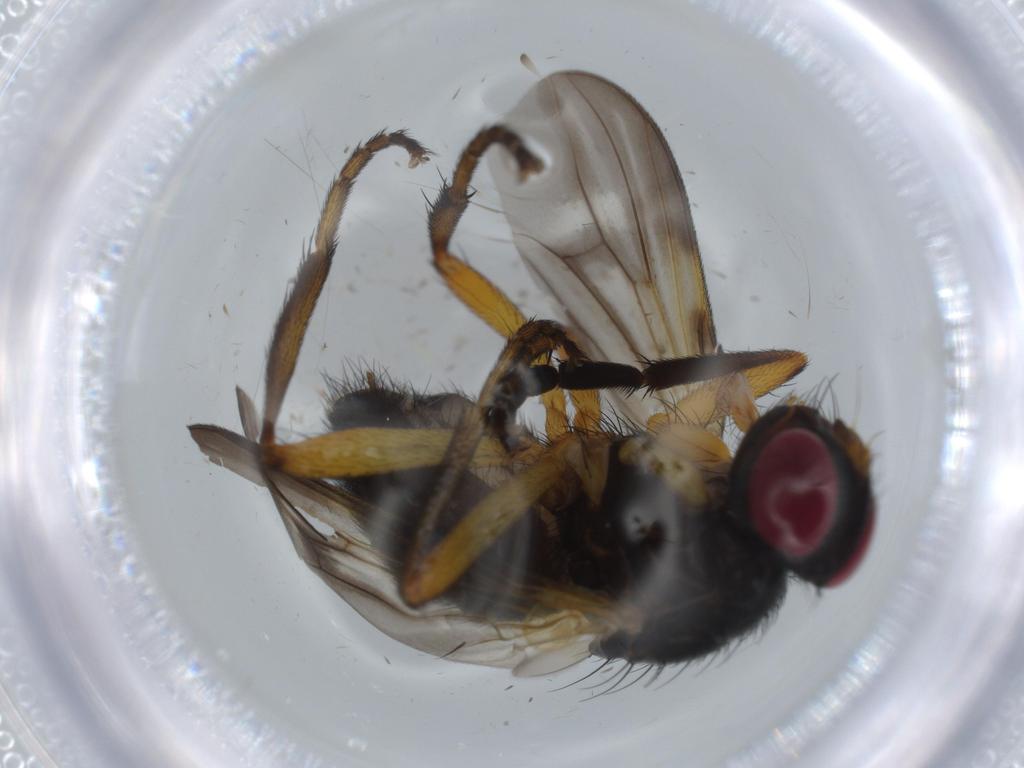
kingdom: Animalia
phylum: Arthropoda
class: Insecta
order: Diptera
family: Calliphoridae
